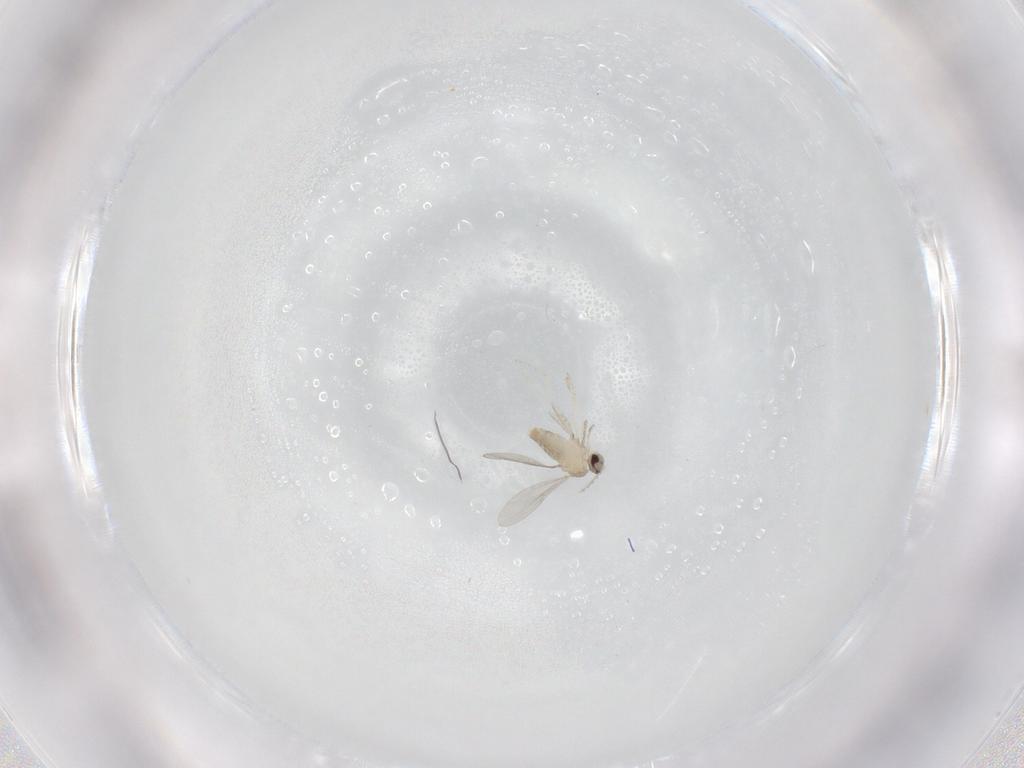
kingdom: Animalia
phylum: Arthropoda
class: Insecta
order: Diptera
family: Cecidomyiidae
